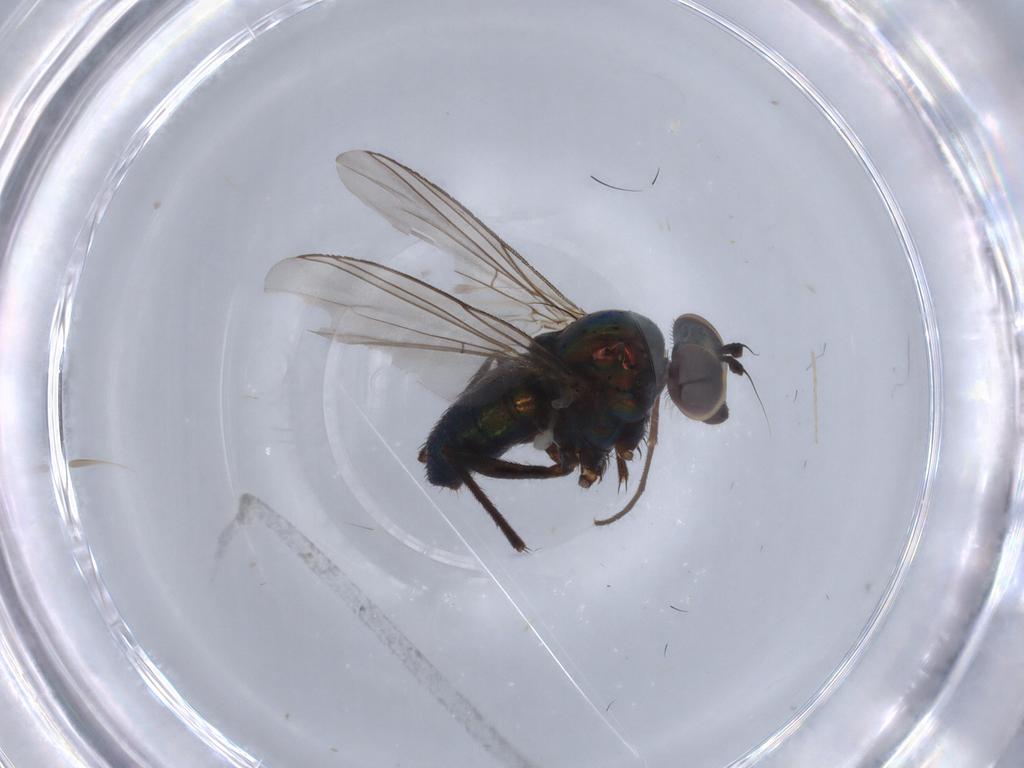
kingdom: Animalia
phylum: Arthropoda
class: Insecta
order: Diptera
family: Dolichopodidae
